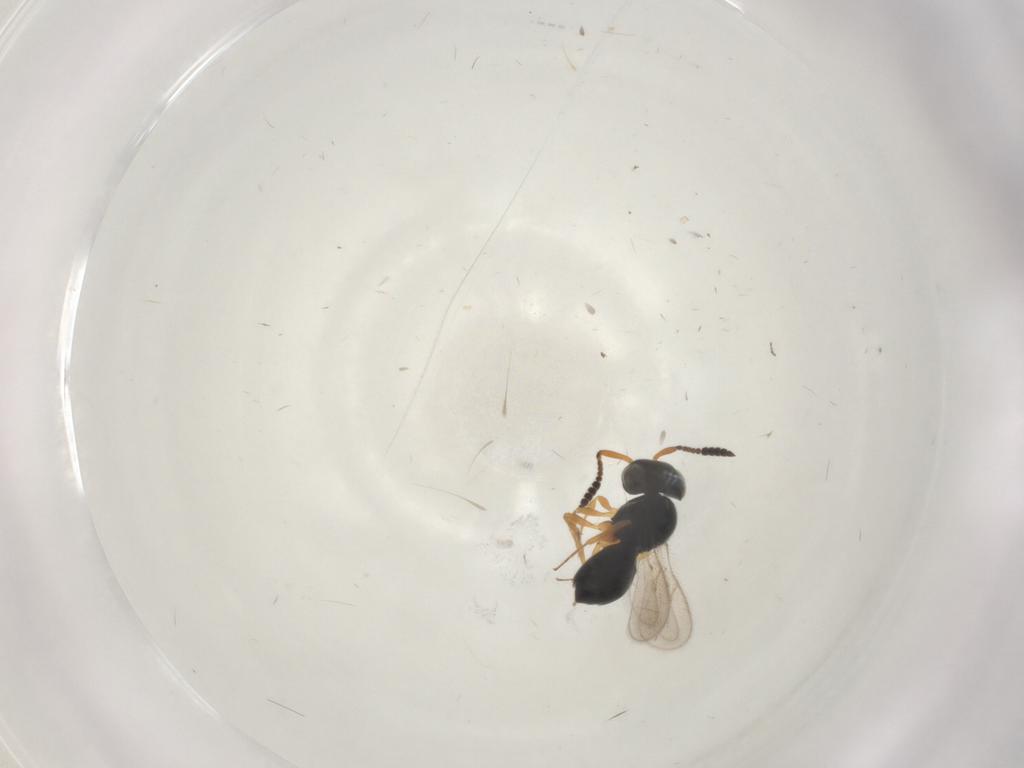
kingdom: Animalia
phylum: Arthropoda
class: Insecta
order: Hymenoptera
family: Scelionidae
